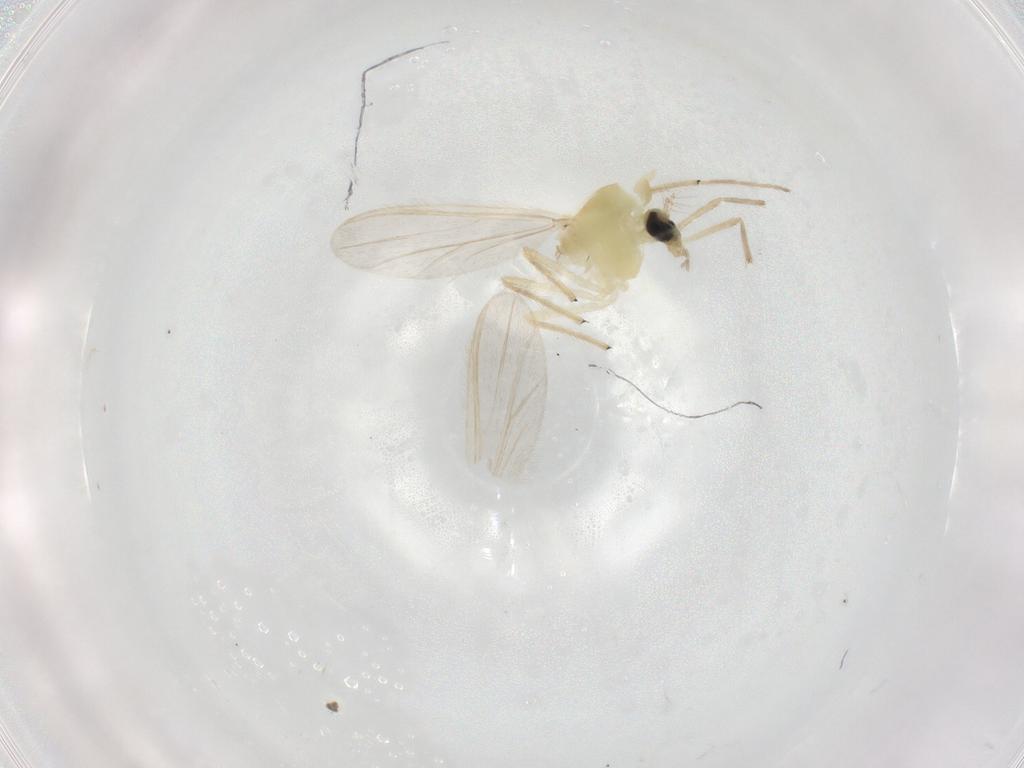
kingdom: Animalia
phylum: Arthropoda
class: Insecta
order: Diptera
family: Chironomidae
